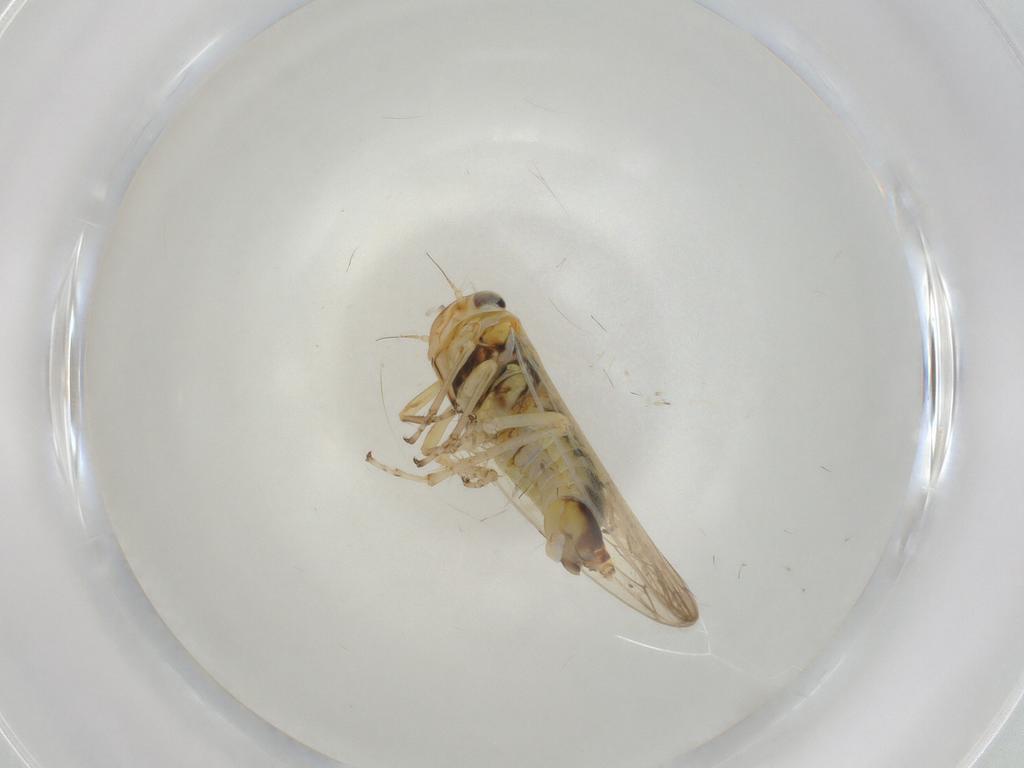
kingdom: Animalia
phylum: Arthropoda
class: Insecta
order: Hemiptera
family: Cicadellidae
